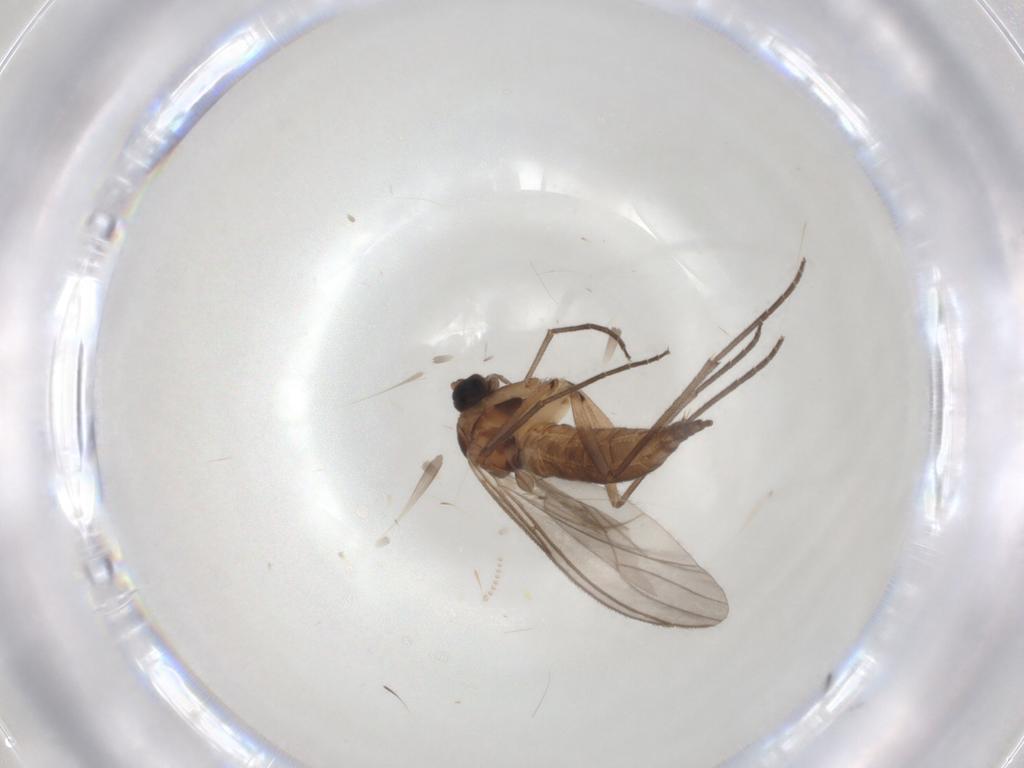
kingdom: Animalia
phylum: Arthropoda
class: Insecta
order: Diptera
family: Sciaridae
